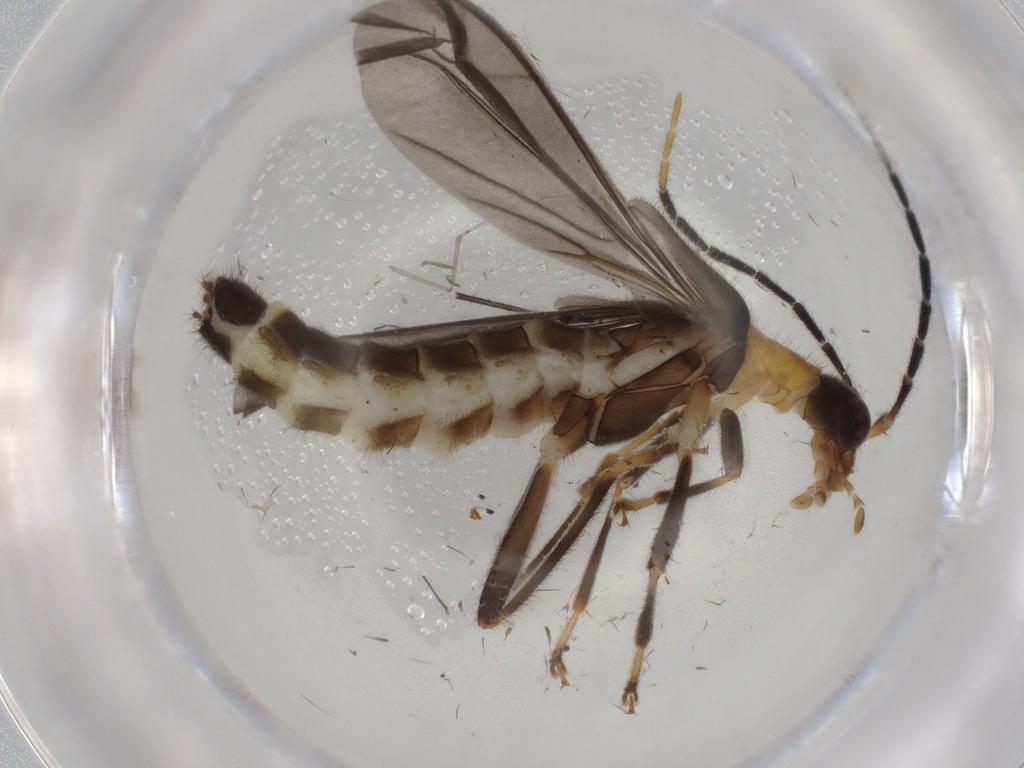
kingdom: Animalia
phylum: Arthropoda
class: Insecta
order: Coleoptera
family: Cantharidae
